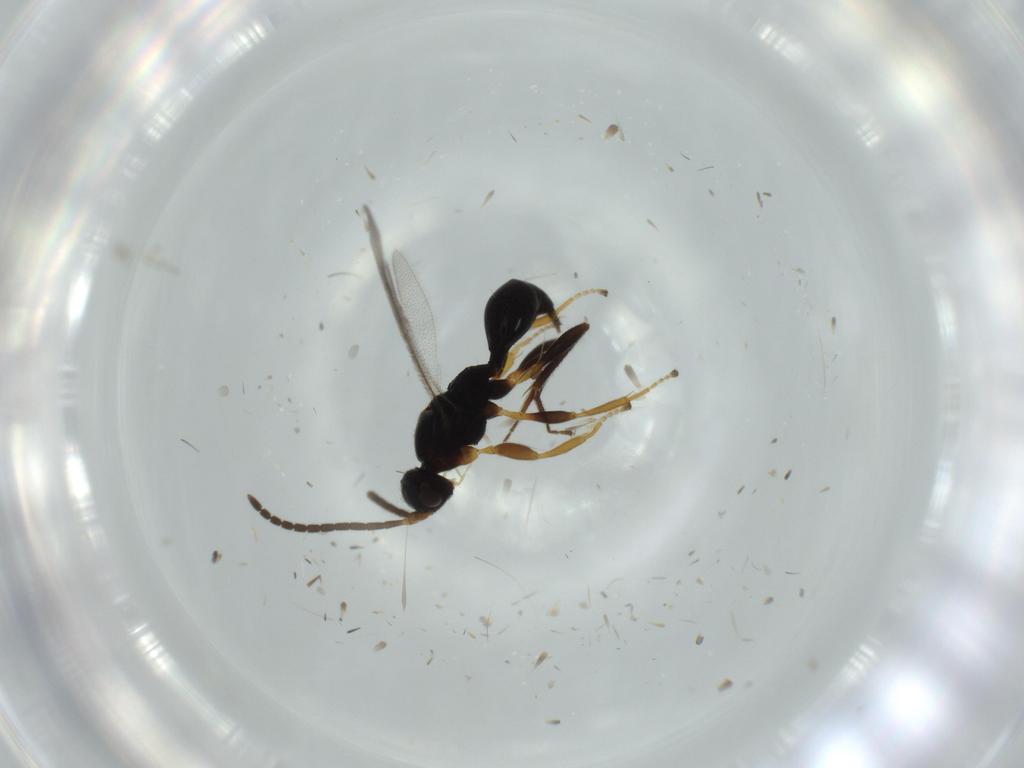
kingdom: Animalia
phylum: Arthropoda
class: Insecta
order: Hymenoptera
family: Proctotrupidae
